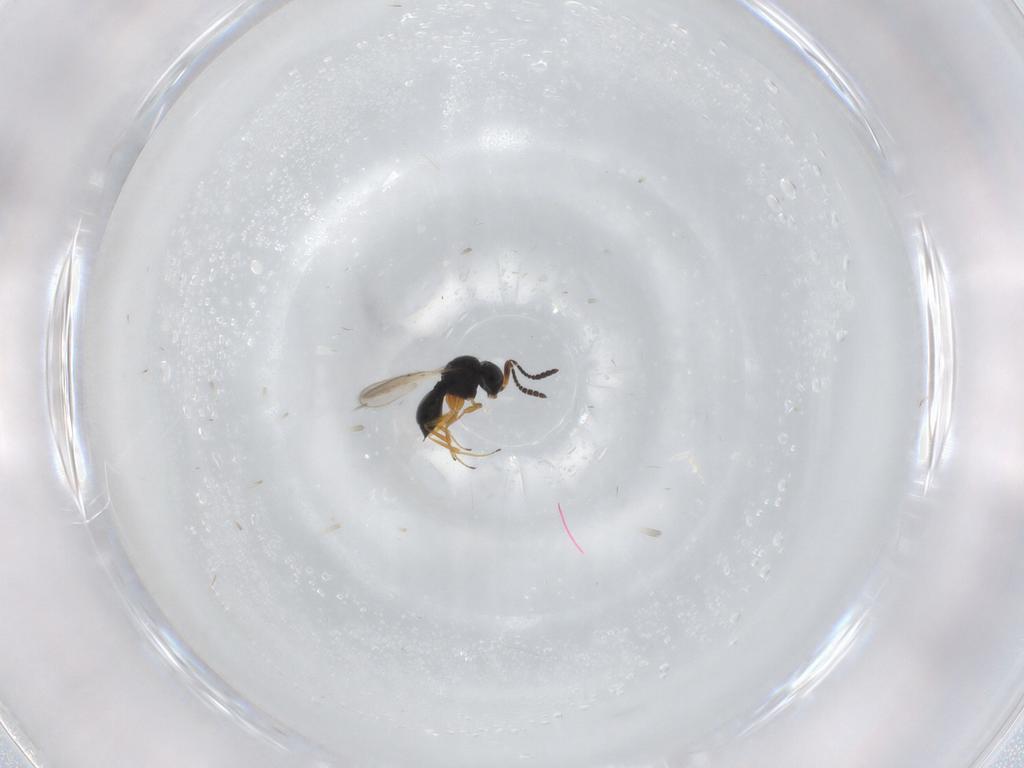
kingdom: Animalia
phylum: Arthropoda
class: Insecta
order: Hymenoptera
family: Scelionidae
